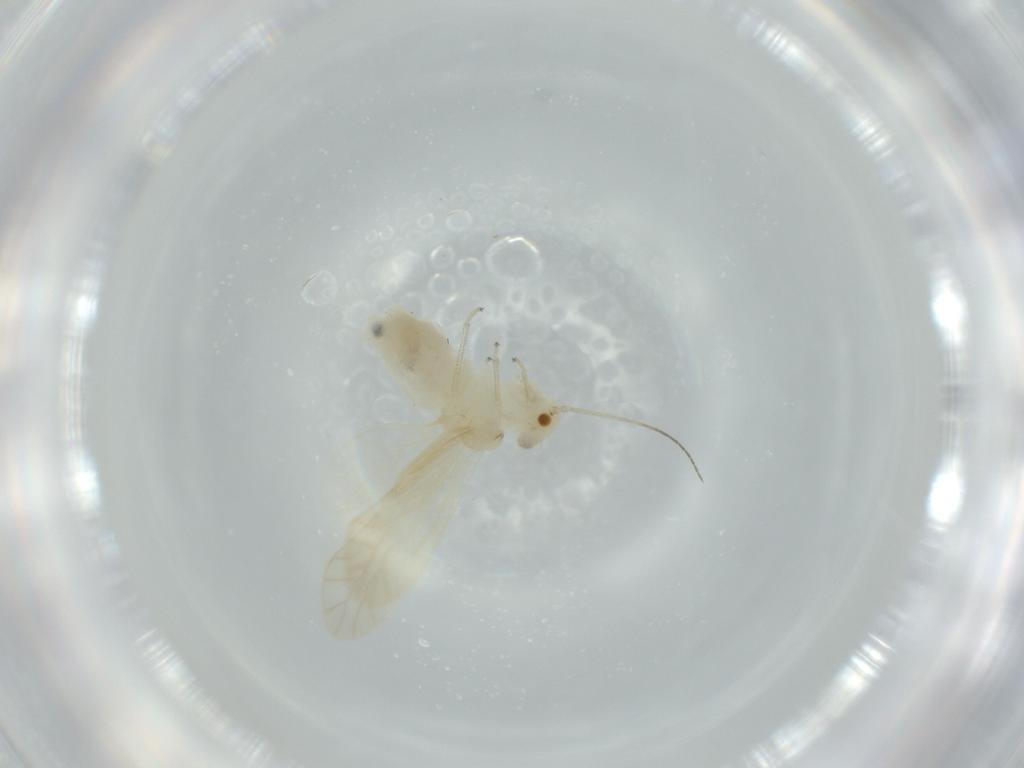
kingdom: Animalia
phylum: Arthropoda
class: Insecta
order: Psocodea
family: Caeciliusidae
